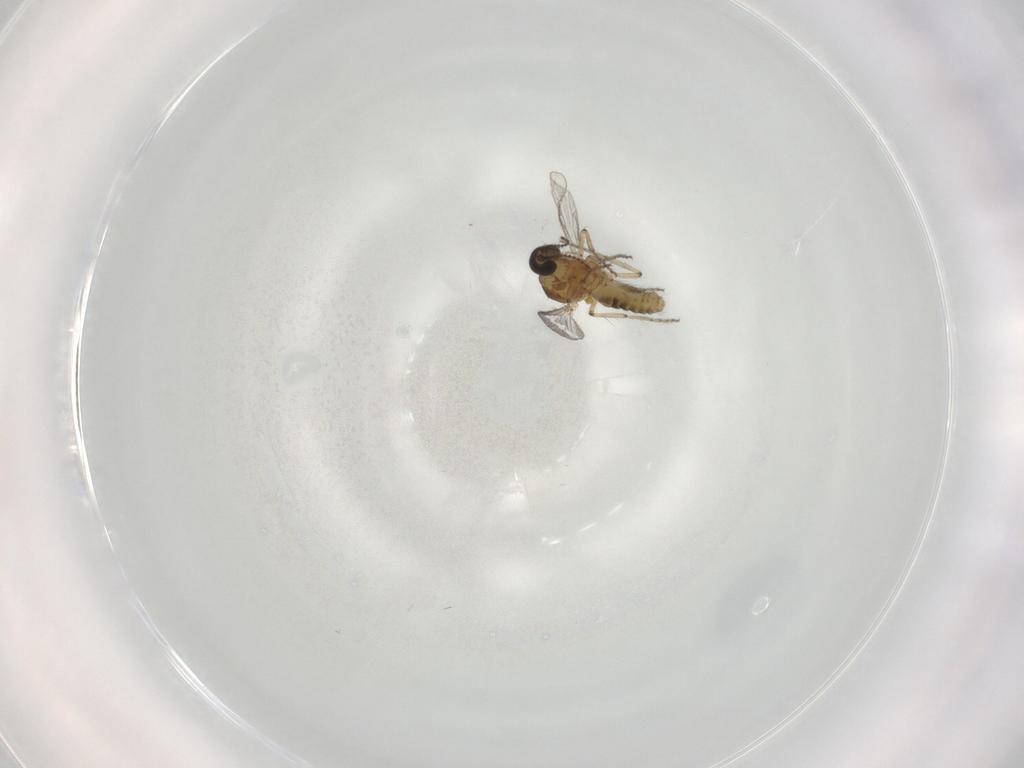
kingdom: Animalia
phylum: Arthropoda
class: Insecta
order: Diptera
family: Ceratopogonidae
